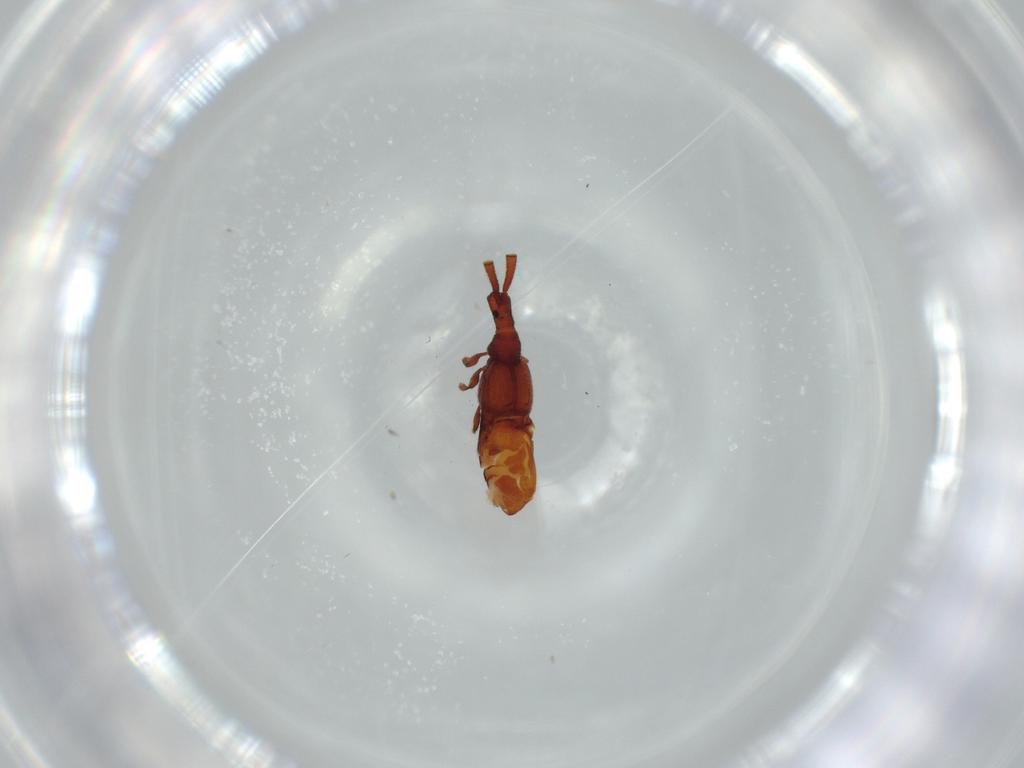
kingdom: Animalia
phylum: Arthropoda
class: Insecta
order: Coleoptera
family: Staphylinidae
